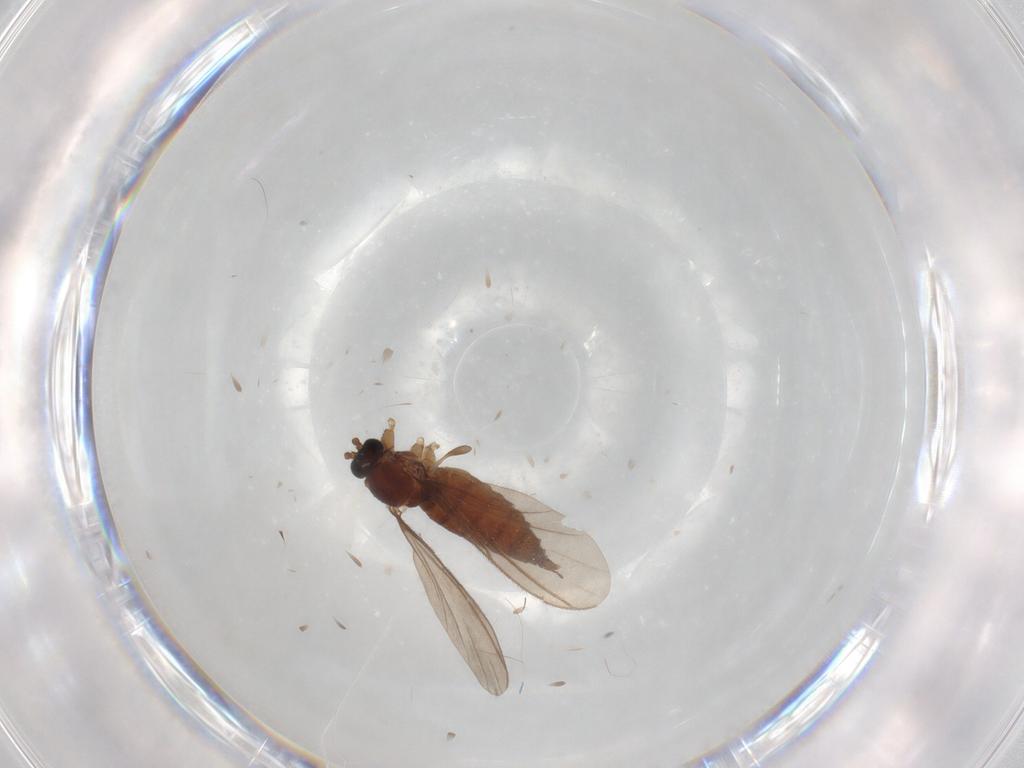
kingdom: Animalia
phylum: Arthropoda
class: Insecta
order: Diptera
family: Sciaridae
